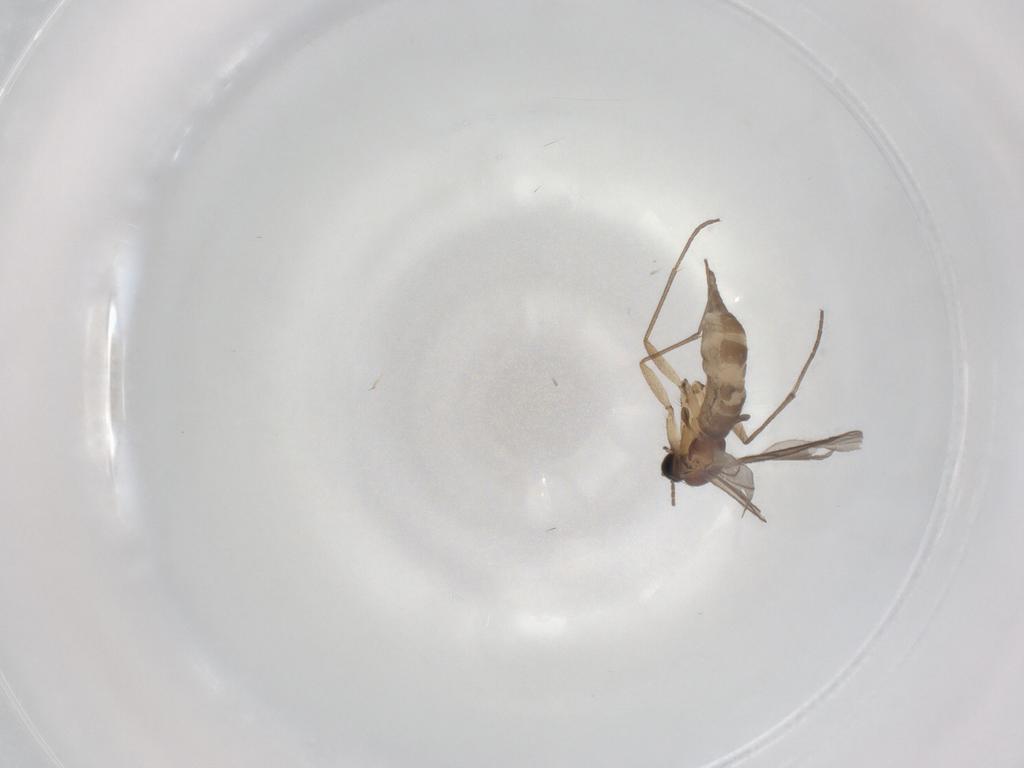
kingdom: Animalia
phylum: Arthropoda
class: Insecta
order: Diptera
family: Sciaridae
